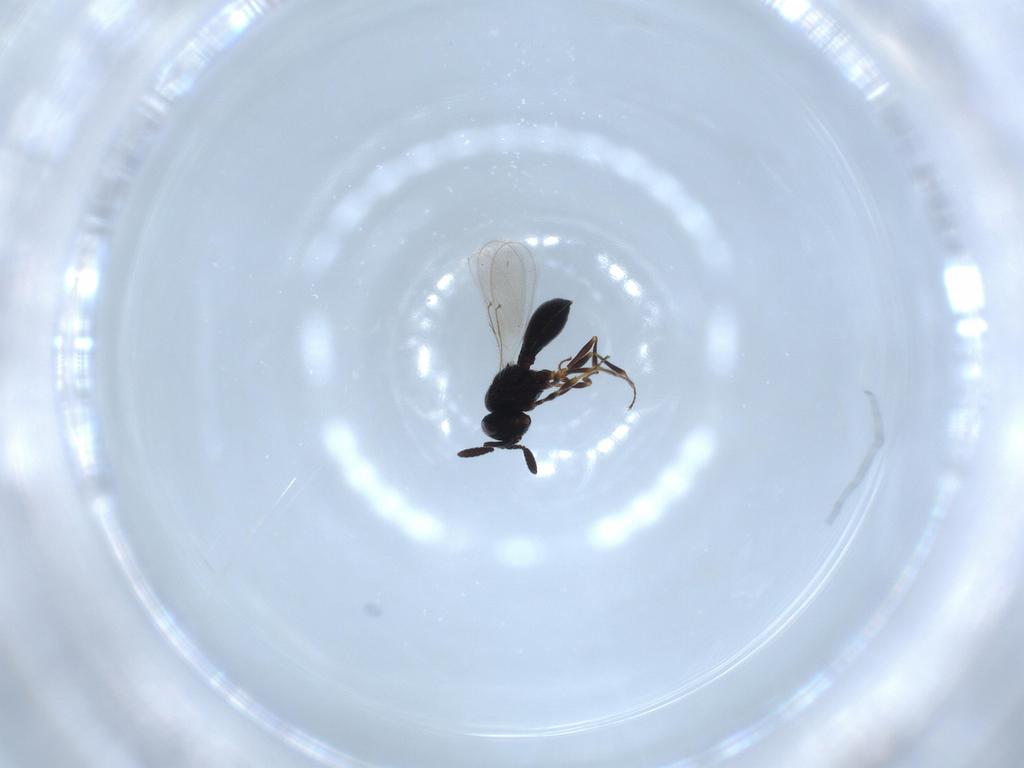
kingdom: Animalia
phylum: Arthropoda
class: Insecta
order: Hymenoptera
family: Scelionidae
